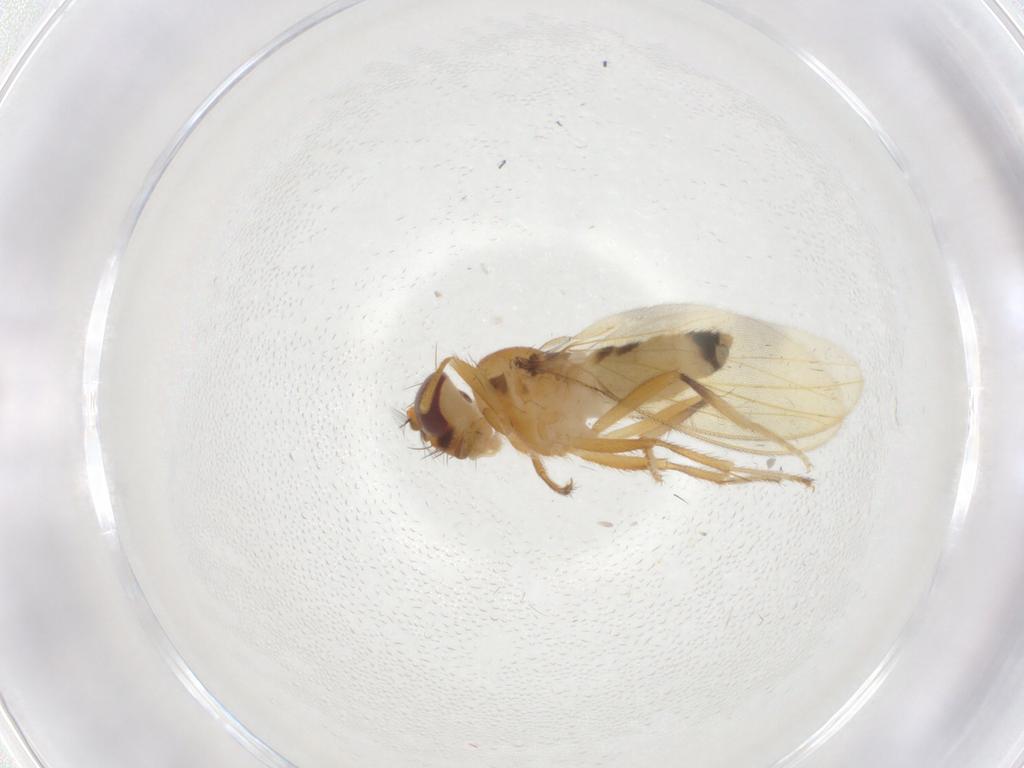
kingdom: Animalia
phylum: Arthropoda
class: Insecta
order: Diptera
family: Periscelididae
